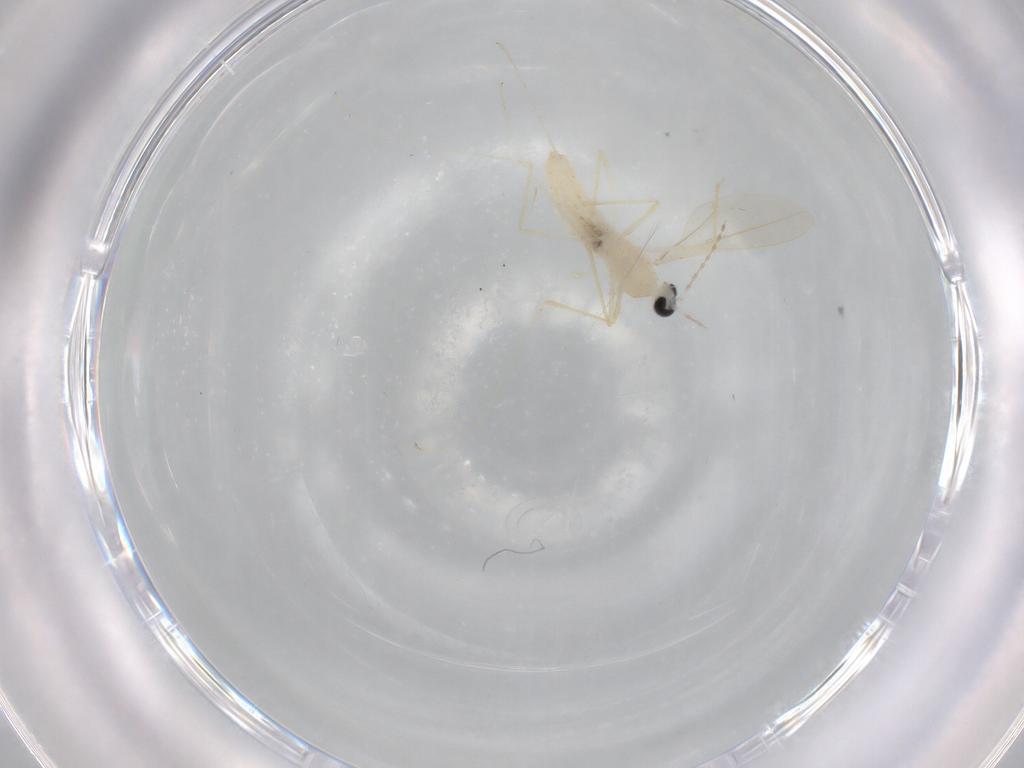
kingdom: Animalia
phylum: Arthropoda
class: Insecta
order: Diptera
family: Cecidomyiidae
